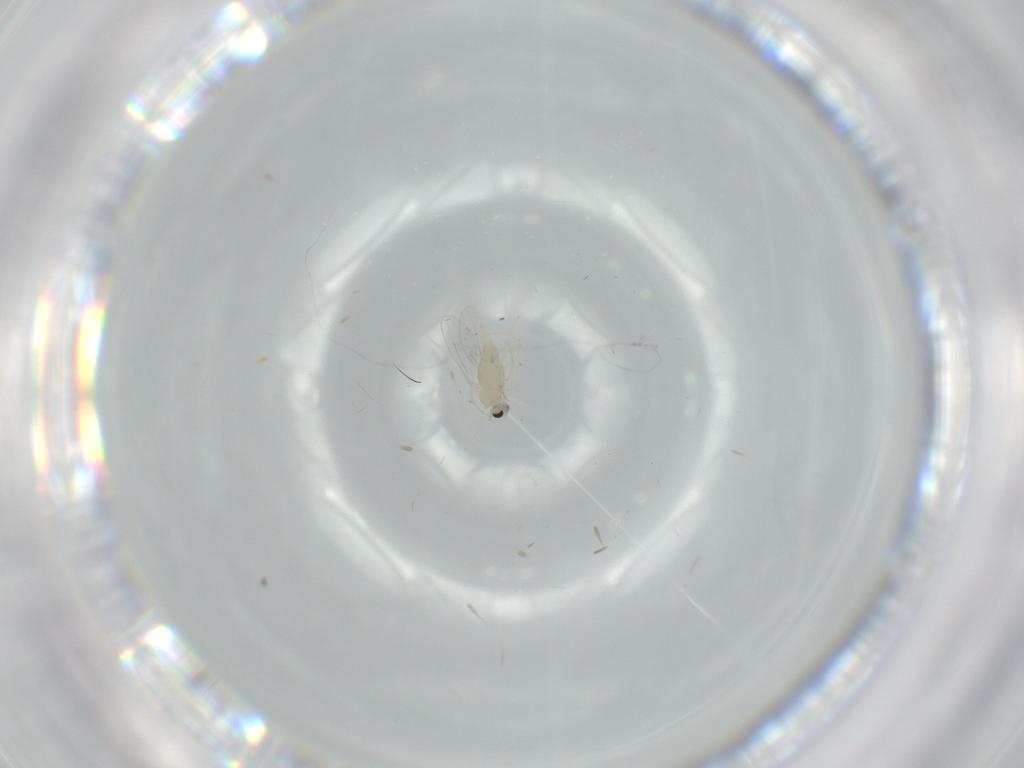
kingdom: Animalia
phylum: Arthropoda
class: Insecta
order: Diptera
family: Cecidomyiidae
